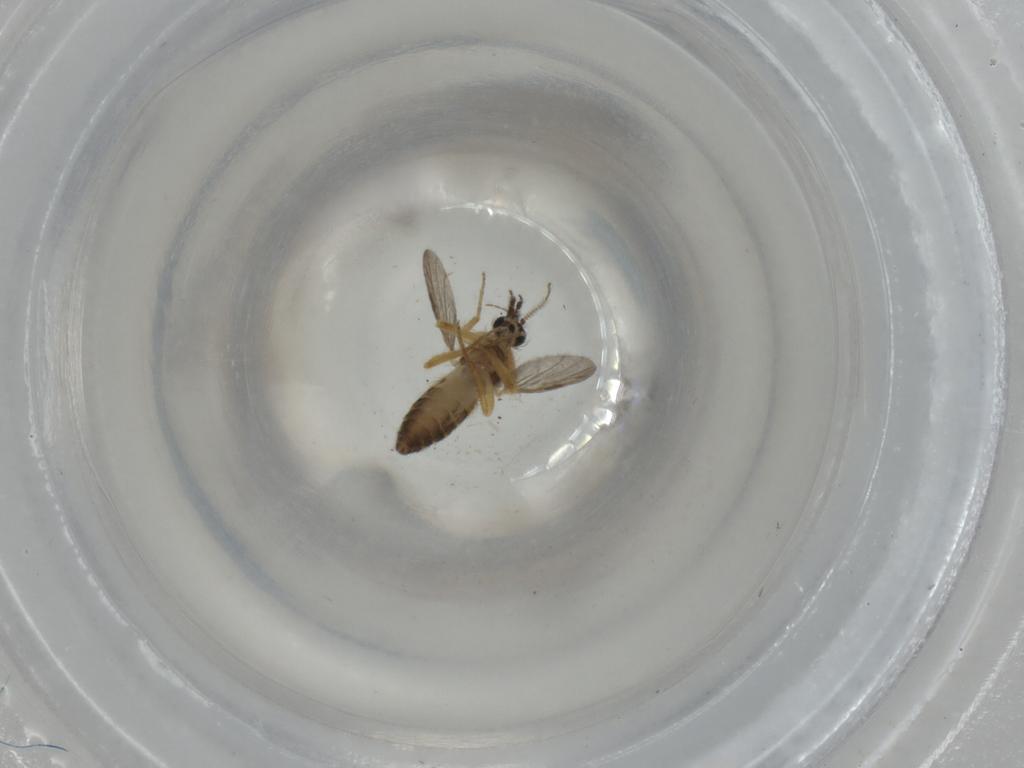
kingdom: Animalia
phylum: Arthropoda
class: Insecta
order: Diptera
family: Ceratopogonidae
